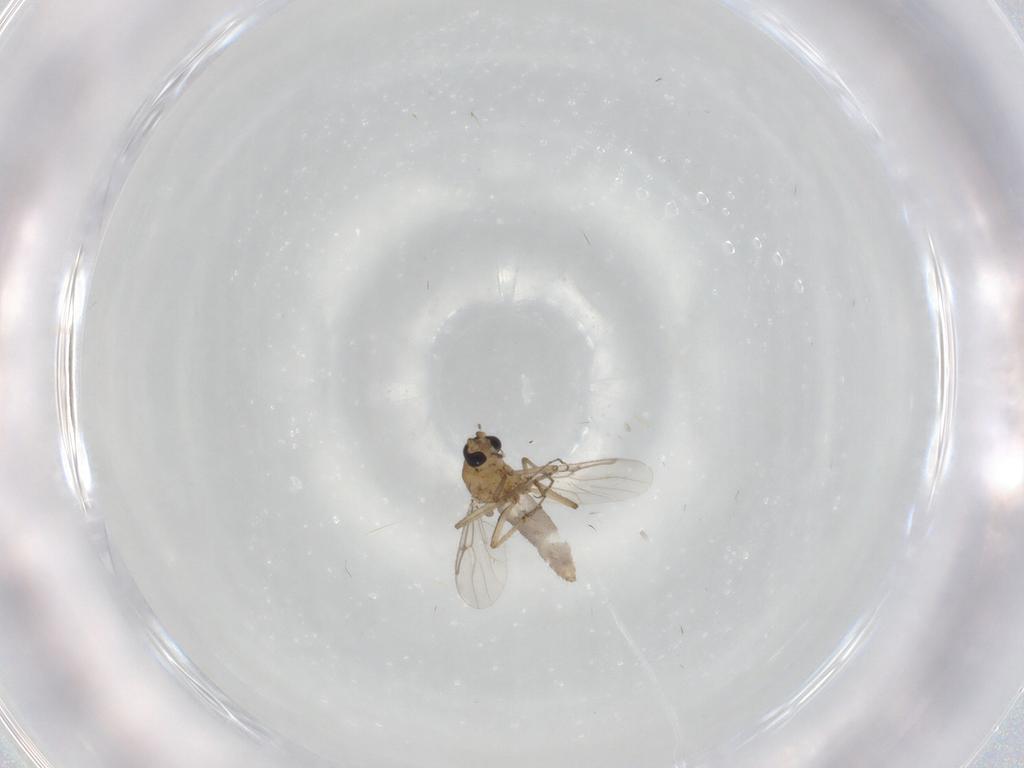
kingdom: Animalia
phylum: Arthropoda
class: Insecta
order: Diptera
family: Ceratopogonidae
